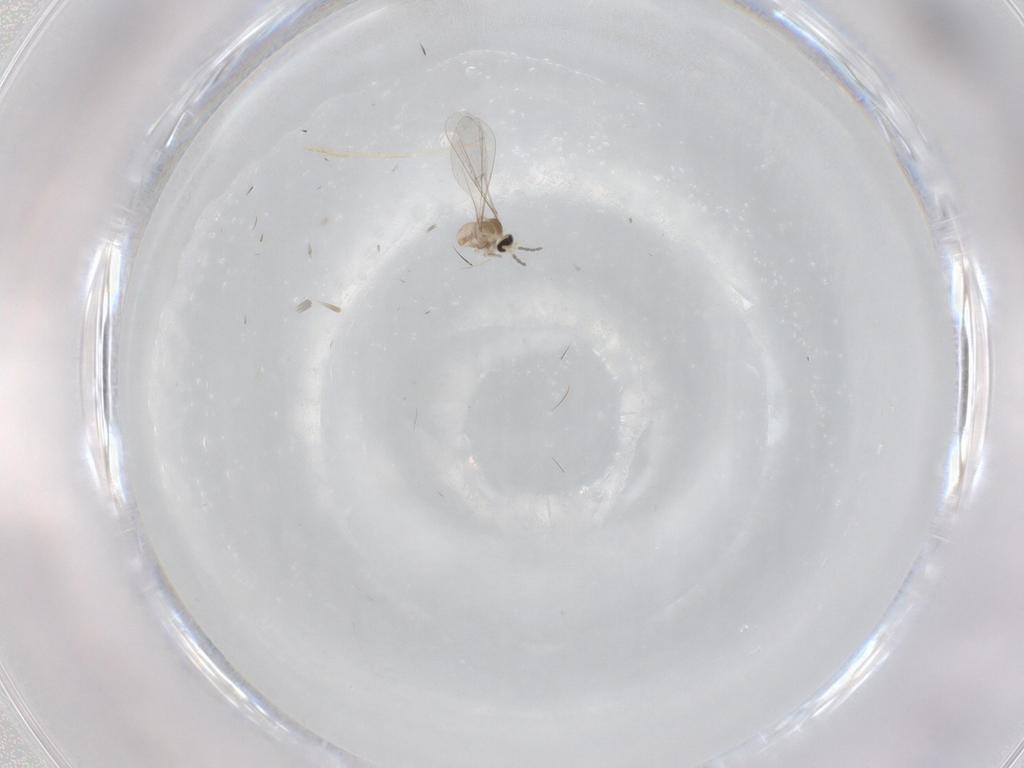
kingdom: Animalia
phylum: Arthropoda
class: Insecta
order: Diptera
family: Cecidomyiidae
